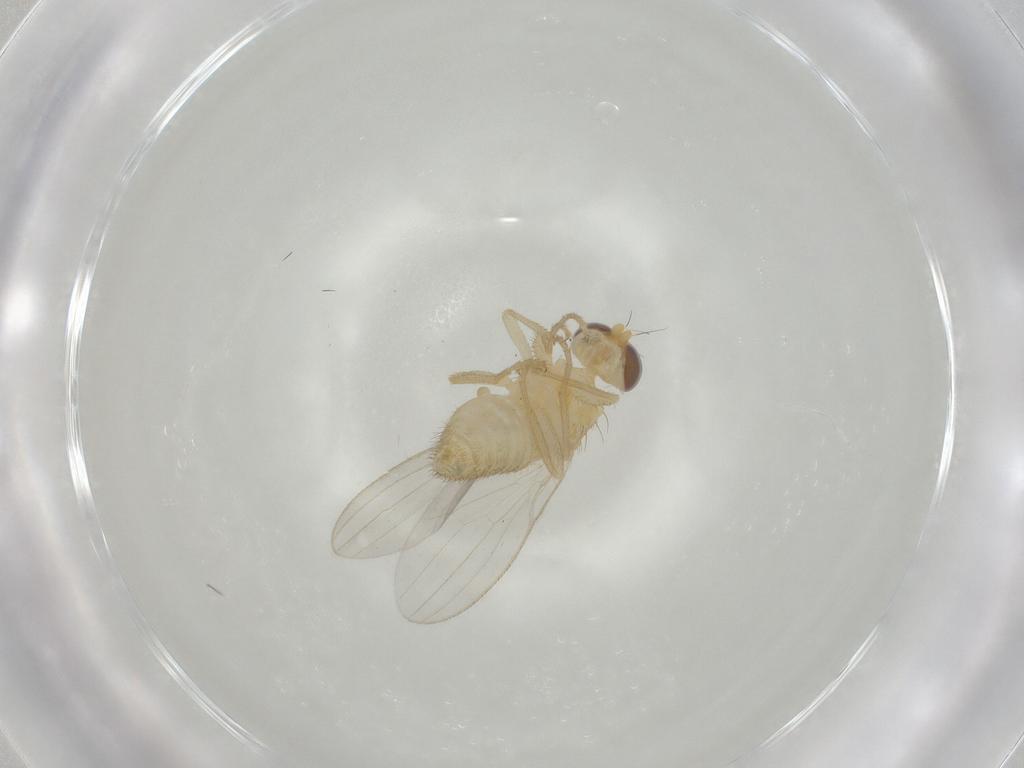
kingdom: Animalia
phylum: Arthropoda
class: Insecta
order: Diptera
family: Chyromyidae
